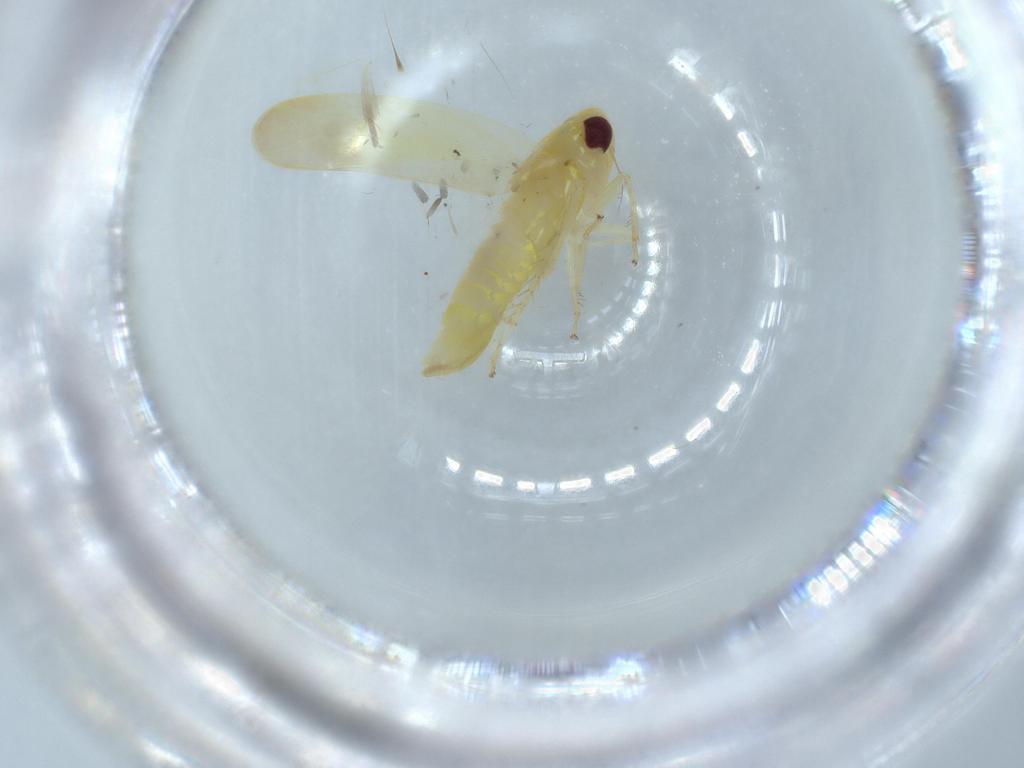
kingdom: Animalia
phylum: Arthropoda
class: Insecta
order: Hemiptera
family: Cicadellidae
